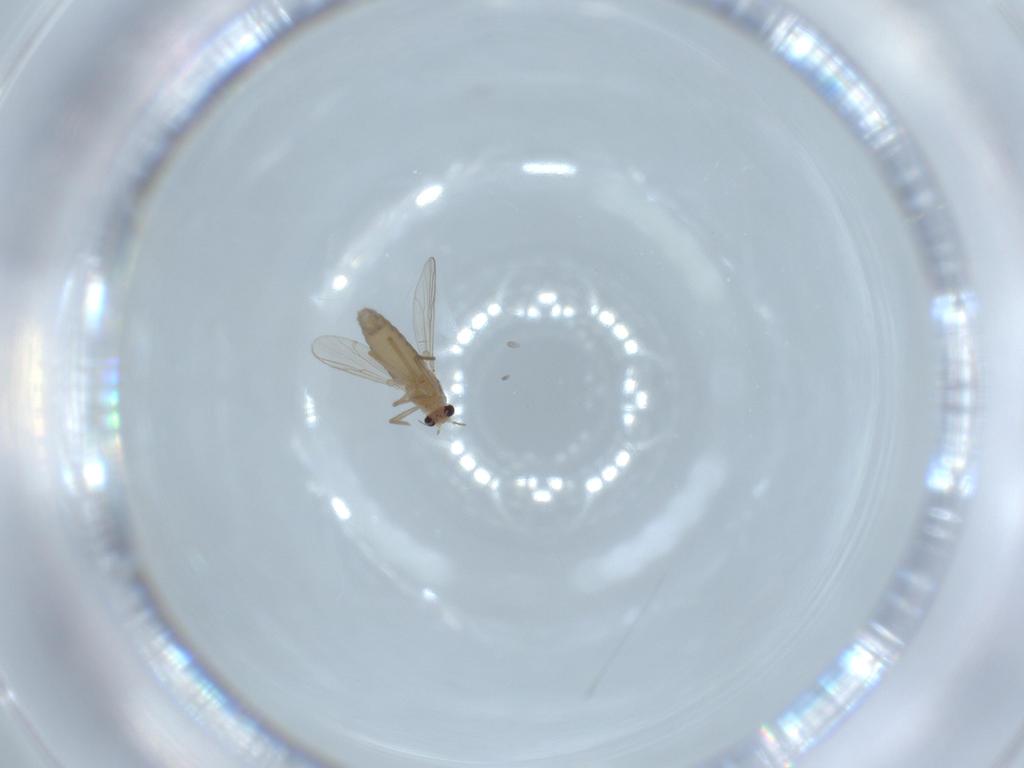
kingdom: Animalia
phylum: Arthropoda
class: Insecta
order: Diptera
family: Chironomidae
